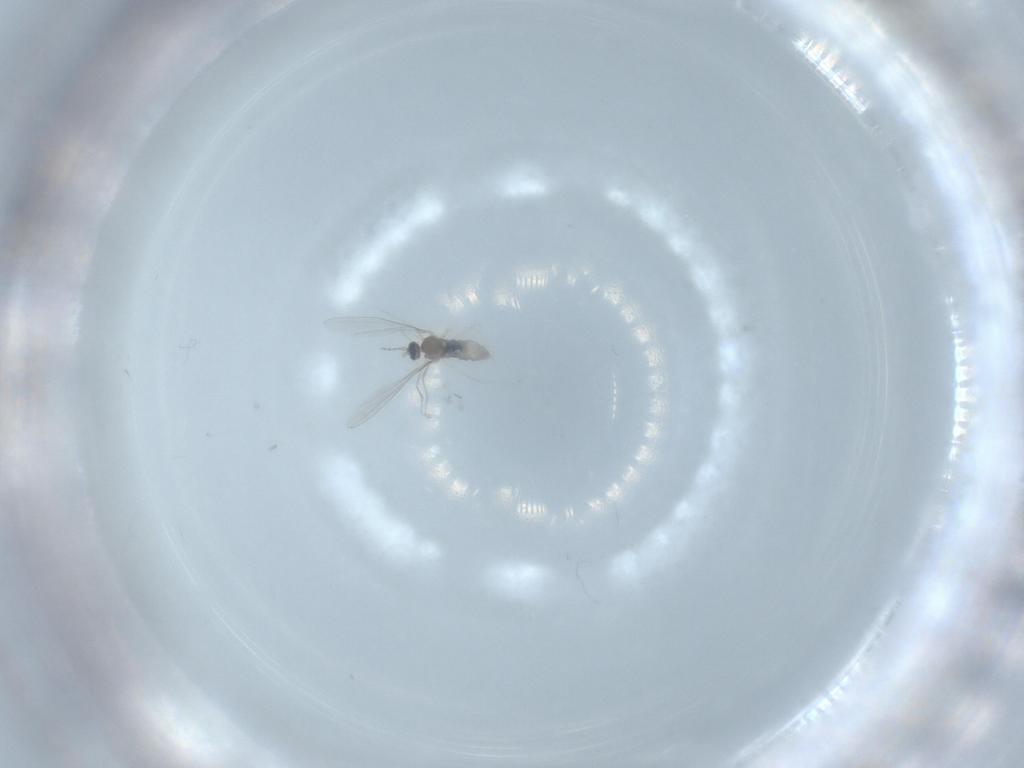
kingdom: Animalia
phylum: Arthropoda
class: Insecta
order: Diptera
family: Cecidomyiidae
